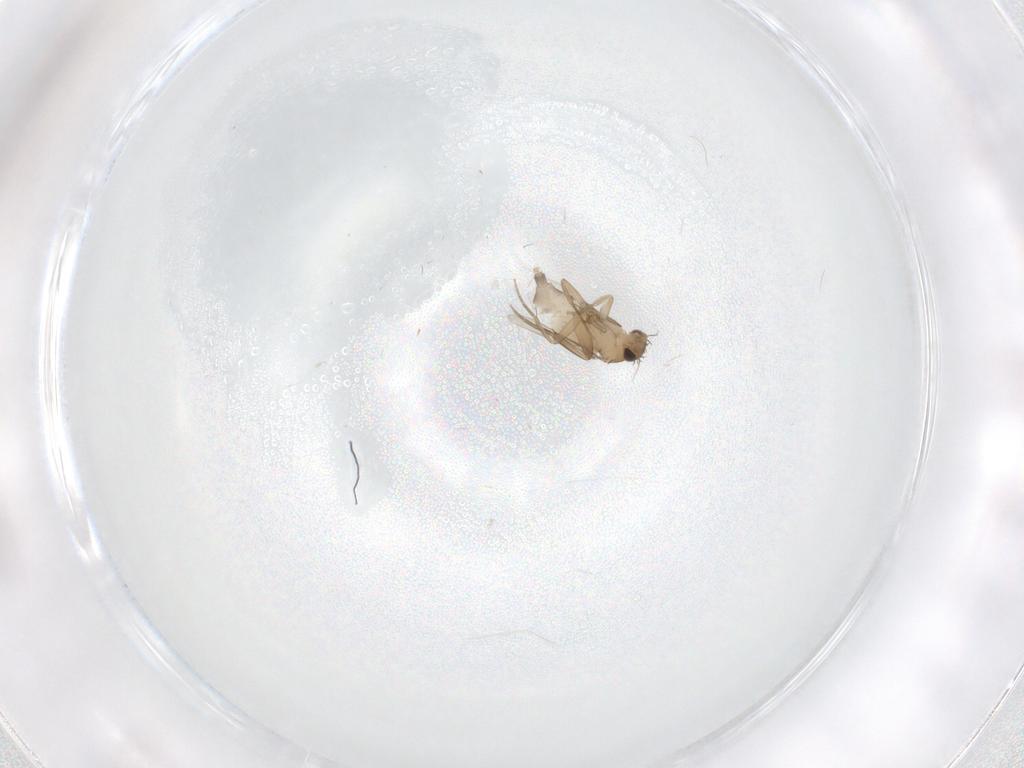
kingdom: Animalia
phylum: Arthropoda
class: Insecta
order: Diptera
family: Phoridae
